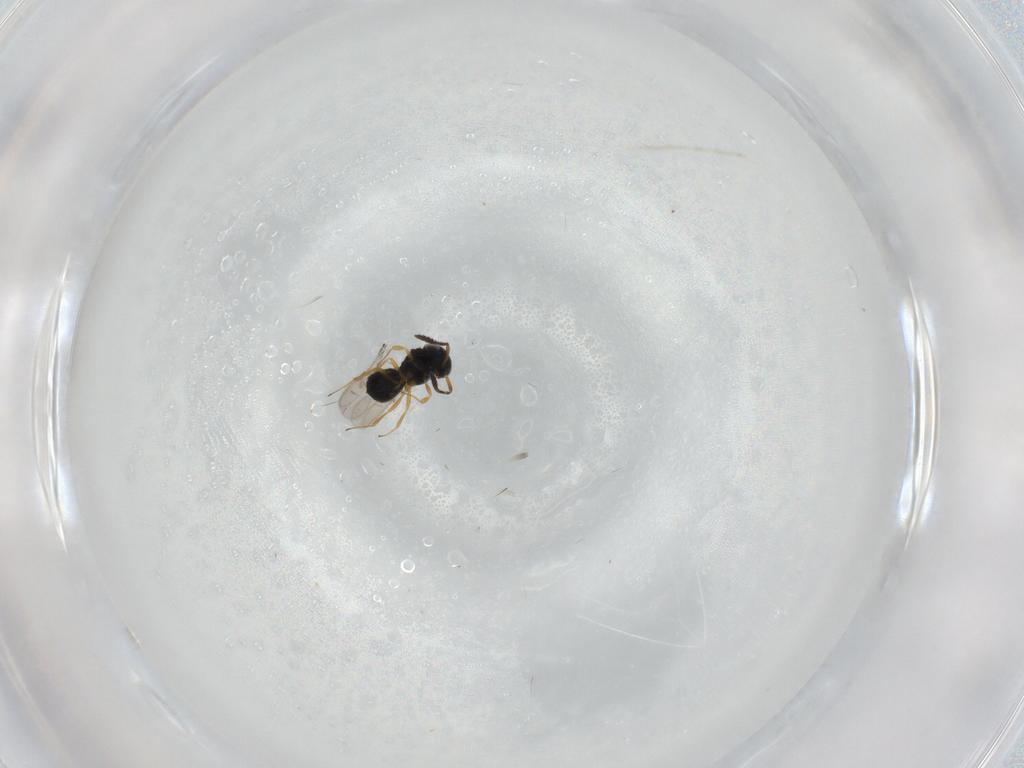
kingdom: Animalia
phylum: Arthropoda
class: Insecta
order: Hymenoptera
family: Scelionidae
